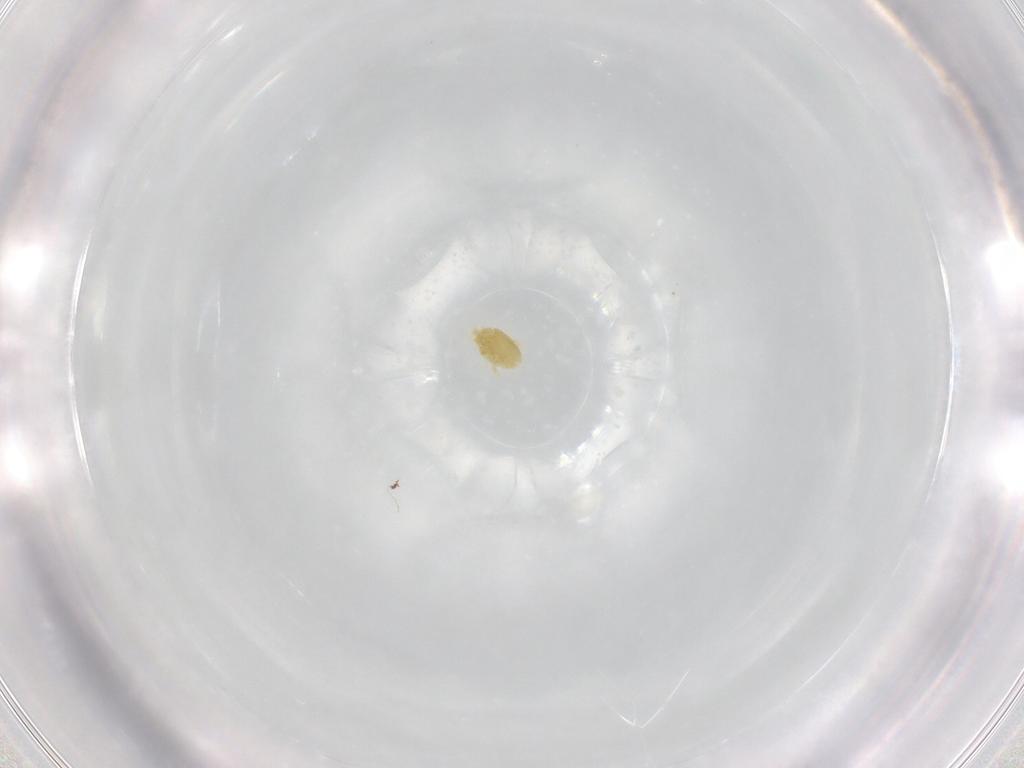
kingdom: Animalia
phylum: Arthropoda
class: Arachnida
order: Trombidiformes
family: Eupodidae
